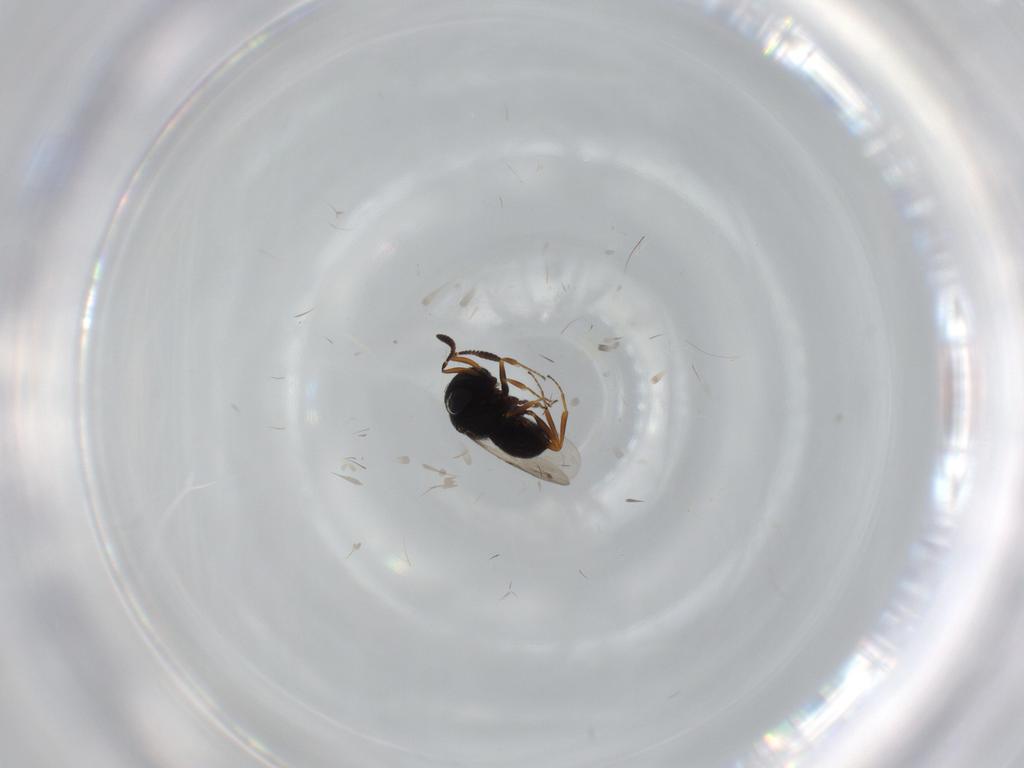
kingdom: Animalia
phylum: Arthropoda
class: Insecta
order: Hymenoptera
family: Scelionidae
